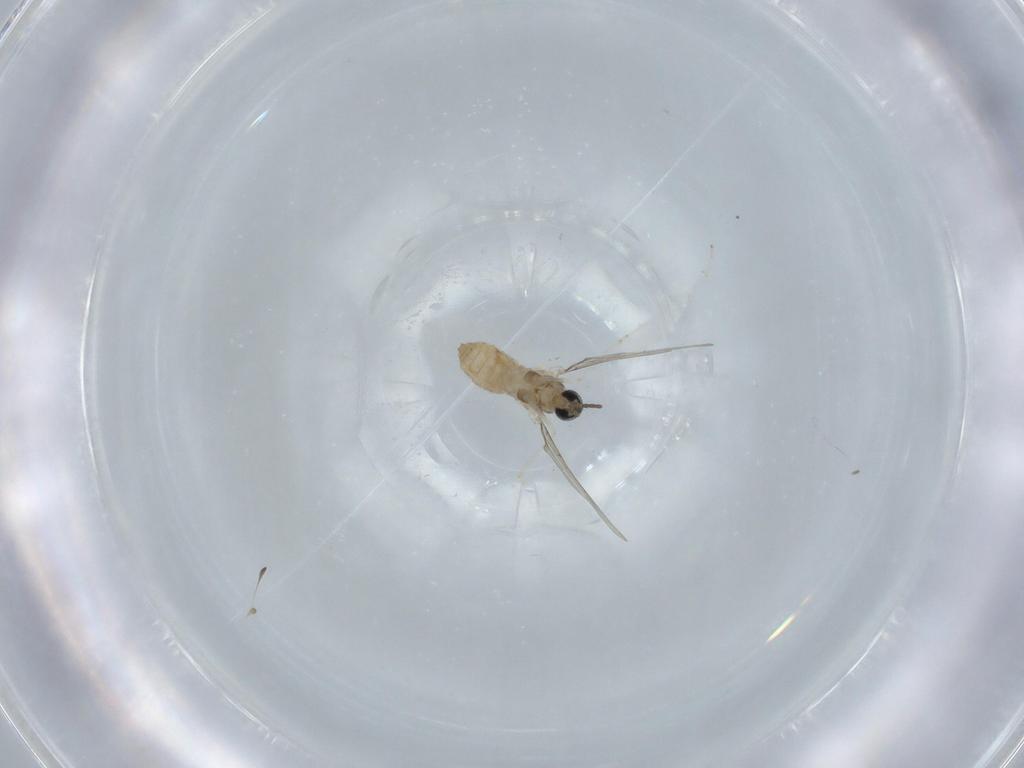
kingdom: Animalia
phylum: Arthropoda
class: Insecta
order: Diptera
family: Cecidomyiidae
